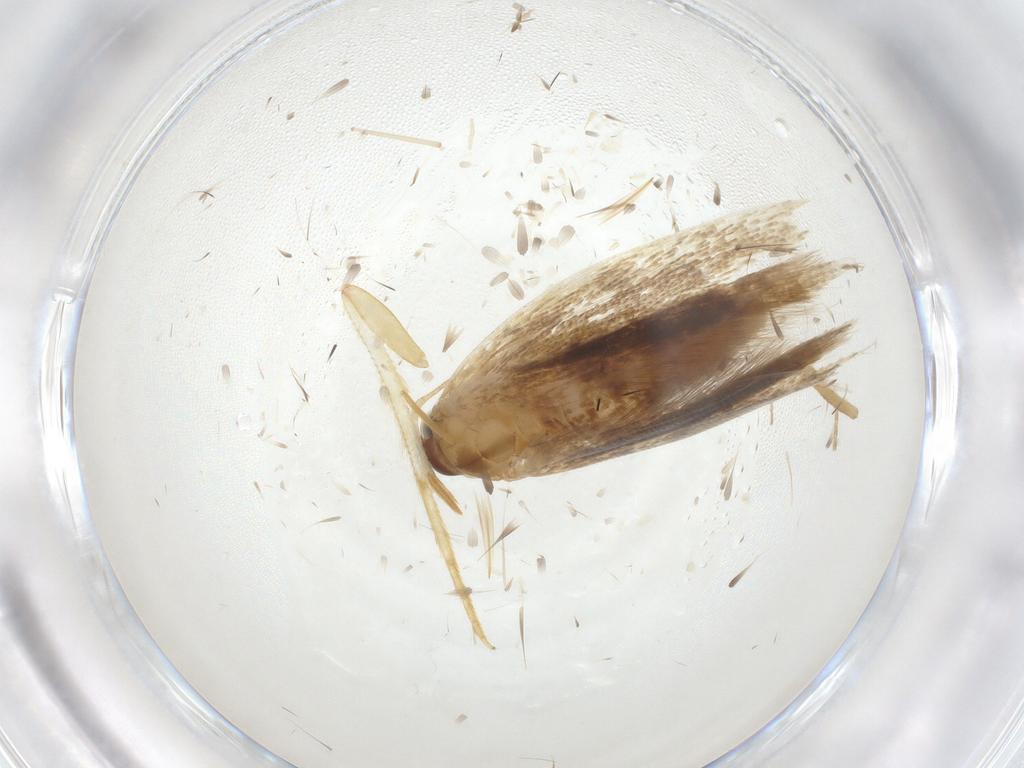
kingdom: Animalia
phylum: Arthropoda
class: Insecta
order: Lepidoptera
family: Gelechiidae
